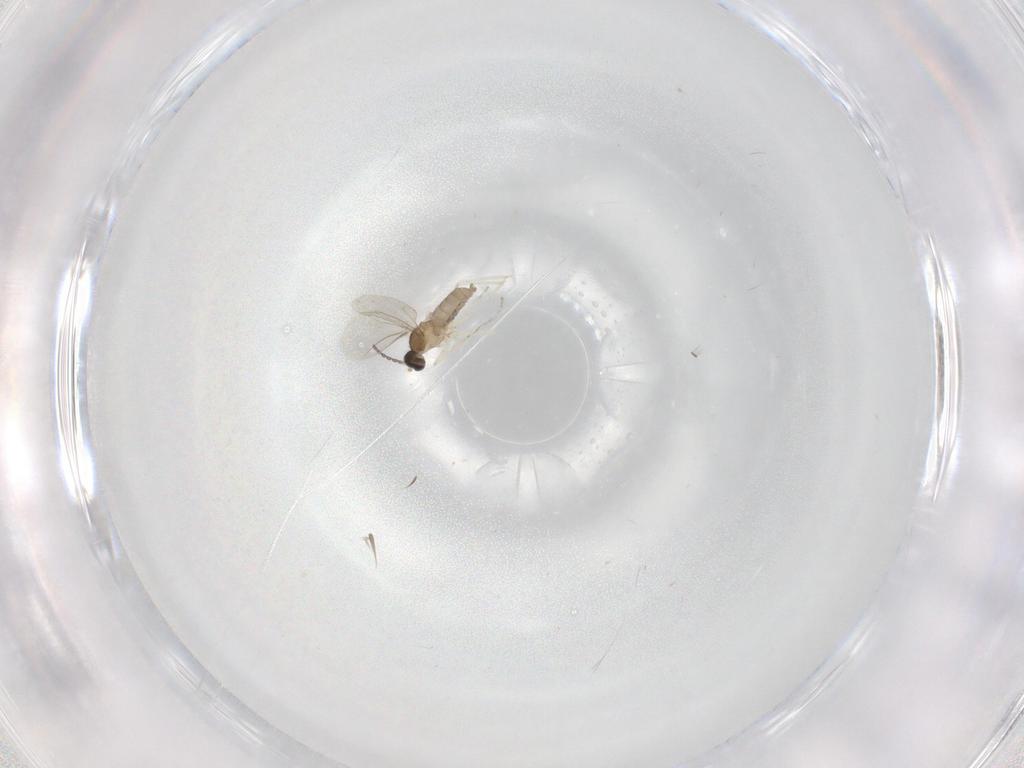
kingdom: Animalia
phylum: Arthropoda
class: Insecta
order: Diptera
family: Cecidomyiidae
